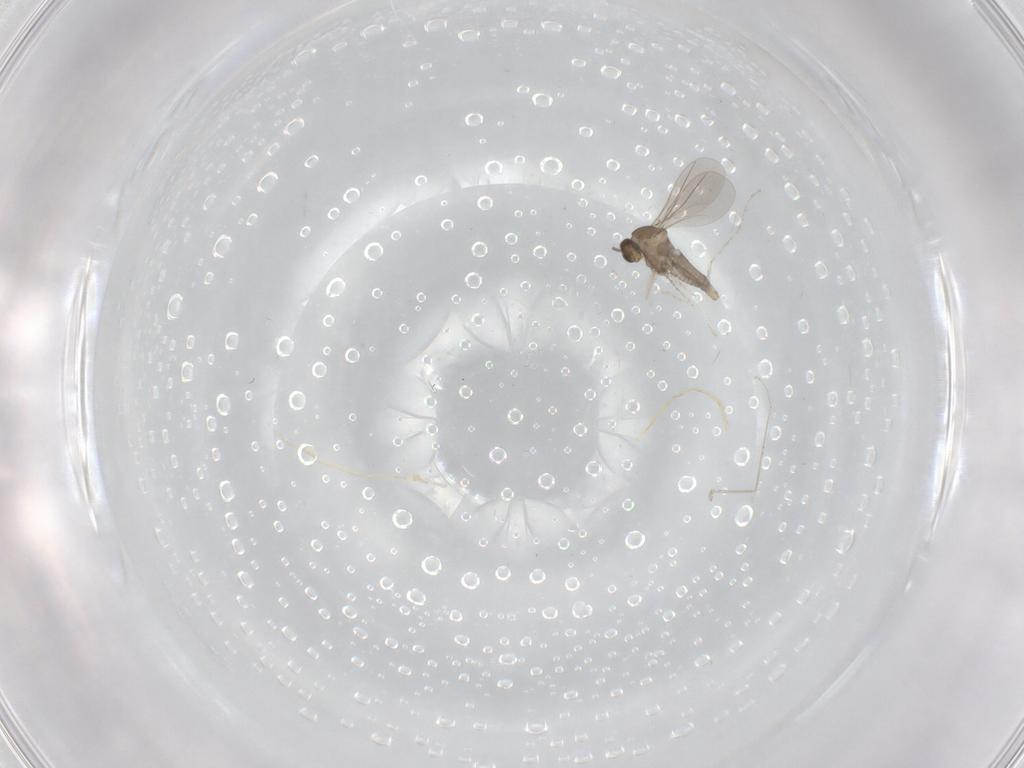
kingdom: Animalia
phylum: Arthropoda
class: Insecta
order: Diptera
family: Cecidomyiidae
